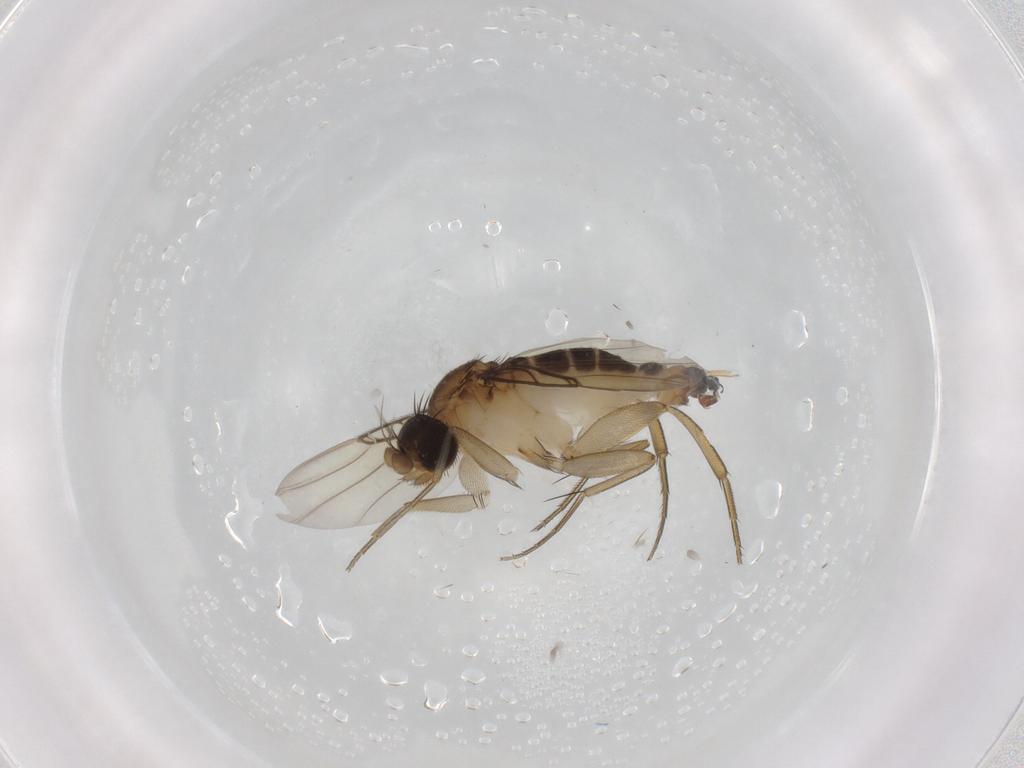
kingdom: Animalia
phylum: Arthropoda
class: Insecta
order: Diptera
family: Phoridae
